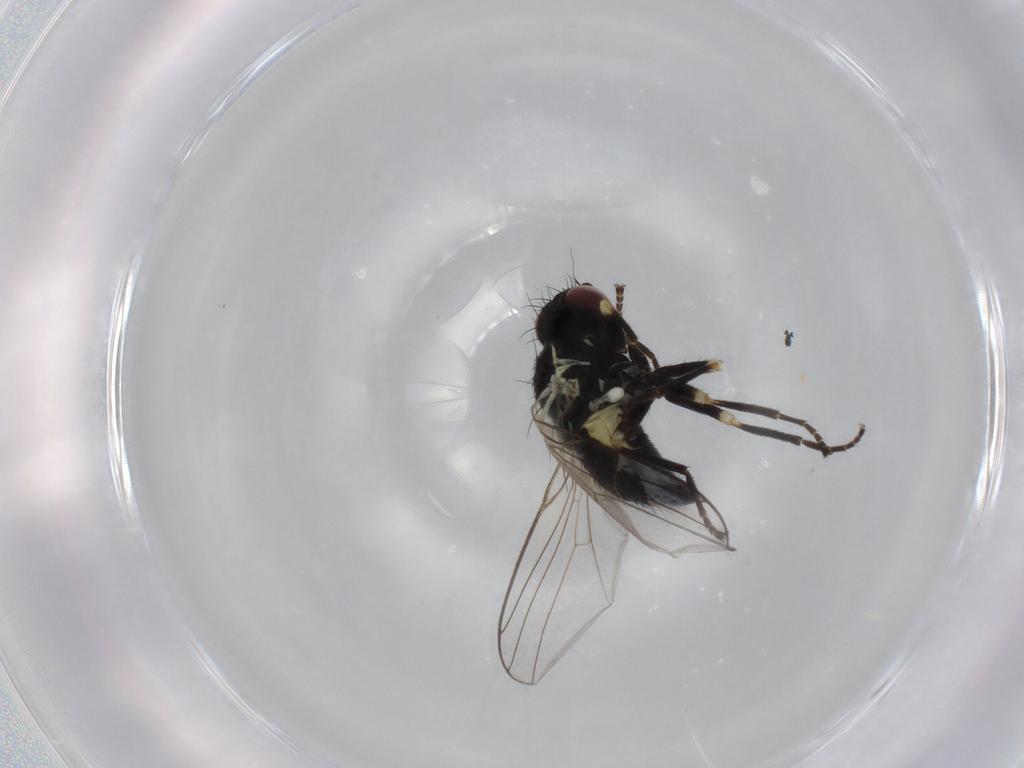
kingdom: Animalia
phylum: Arthropoda
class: Insecta
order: Diptera
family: Agromyzidae
